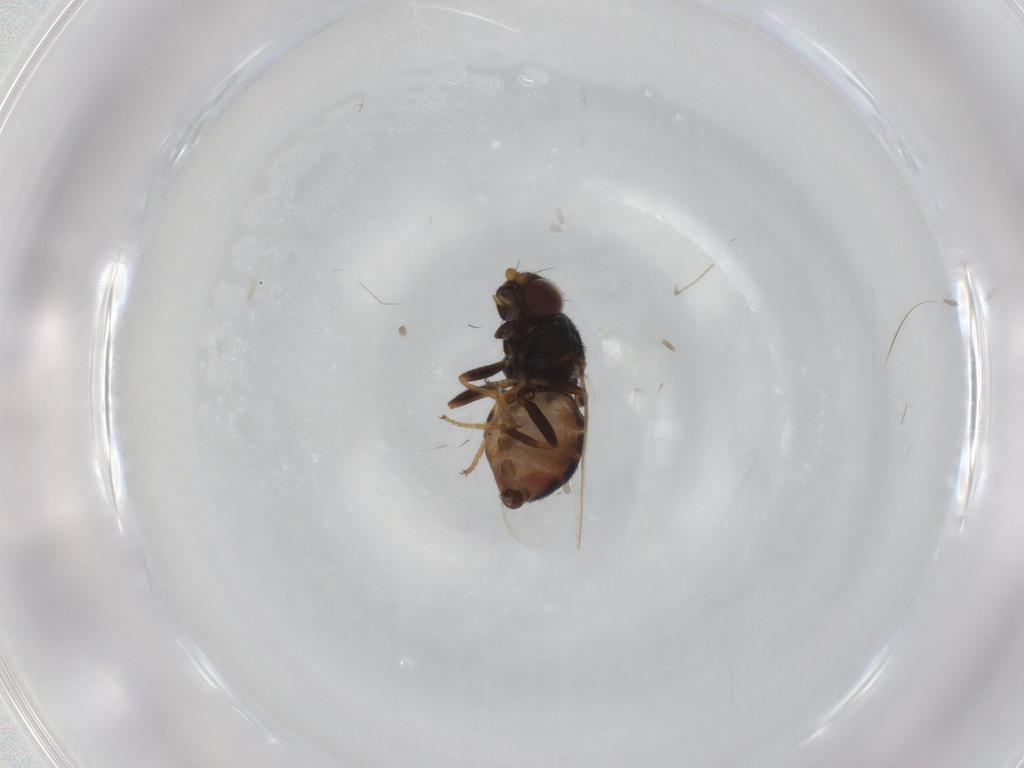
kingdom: Animalia
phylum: Arthropoda
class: Insecta
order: Diptera
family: Chloropidae
